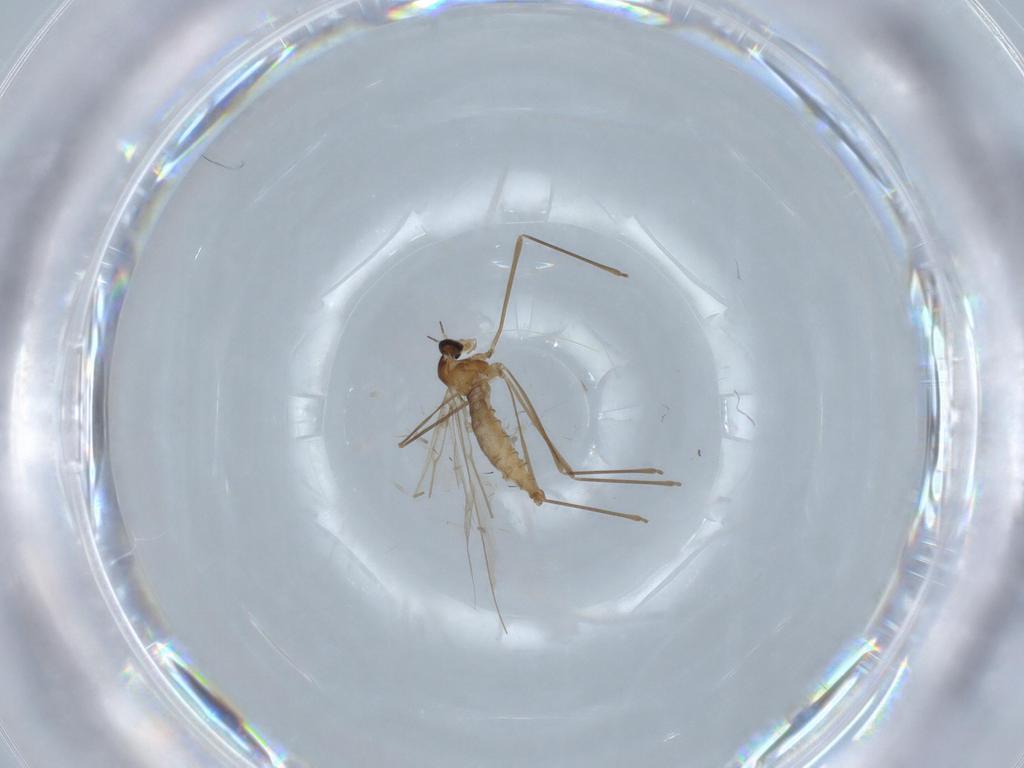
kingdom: Animalia
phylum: Arthropoda
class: Insecta
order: Diptera
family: Cecidomyiidae
